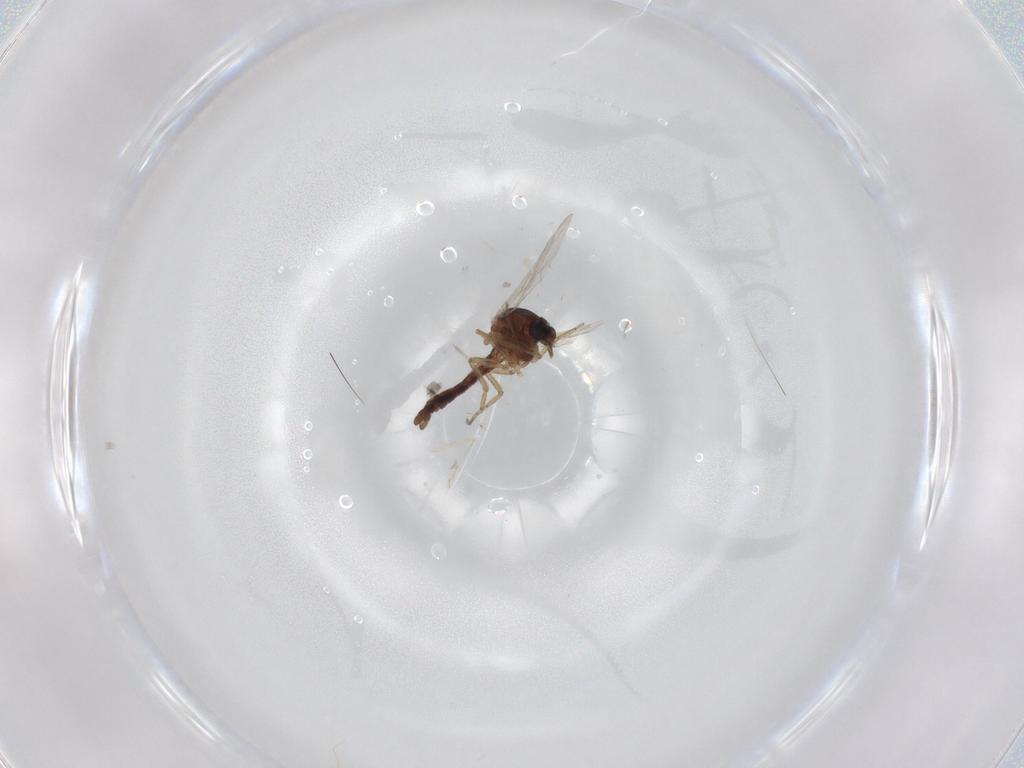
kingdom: Animalia
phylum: Arthropoda
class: Insecta
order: Diptera
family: Ceratopogonidae
